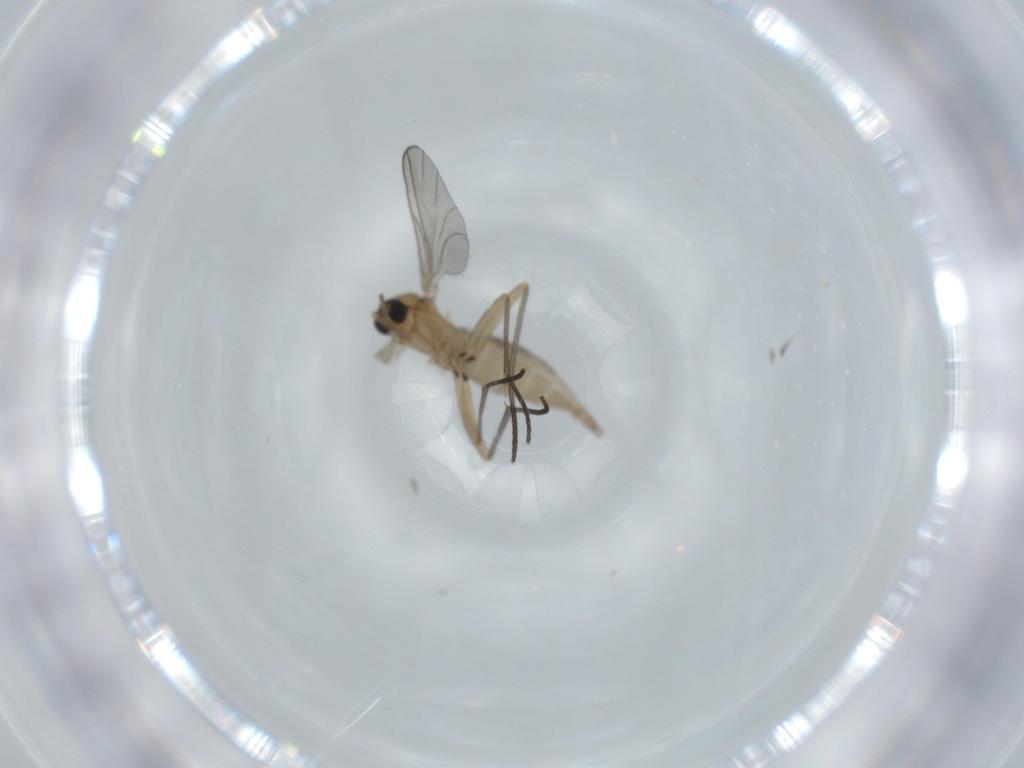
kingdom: Animalia
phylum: Arthropoda
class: Insecta
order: Diptera
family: Sciaridae
